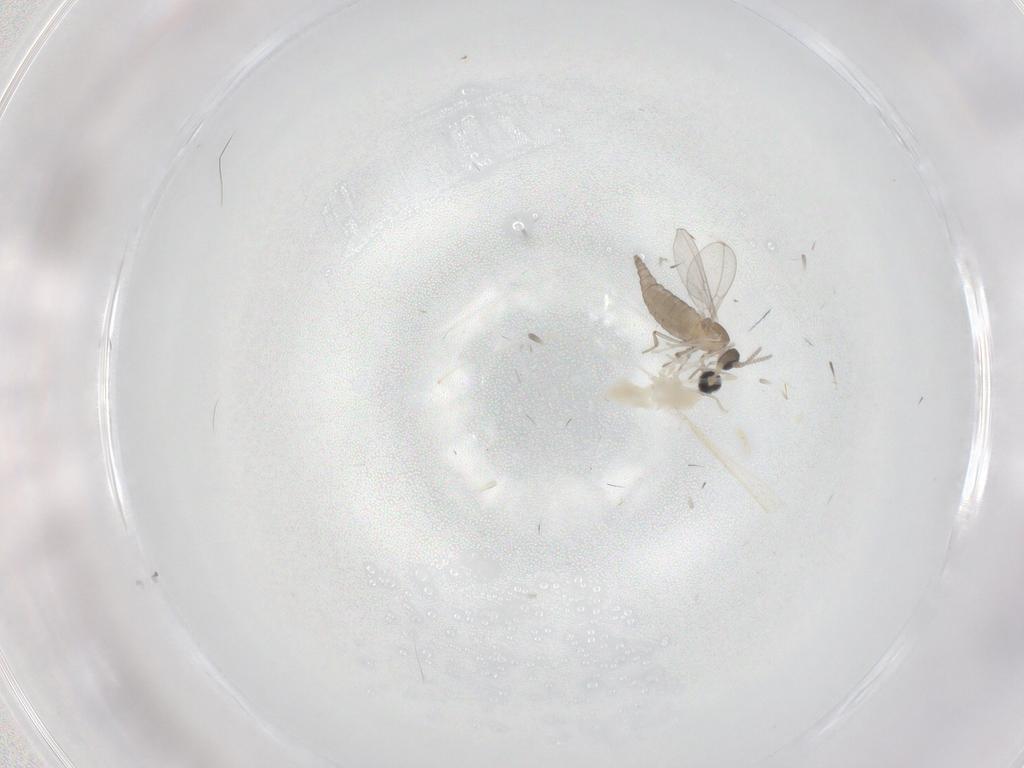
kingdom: Animalia
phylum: Arthropoda
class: Insecta
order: Diptera
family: Cecidomyiidae
